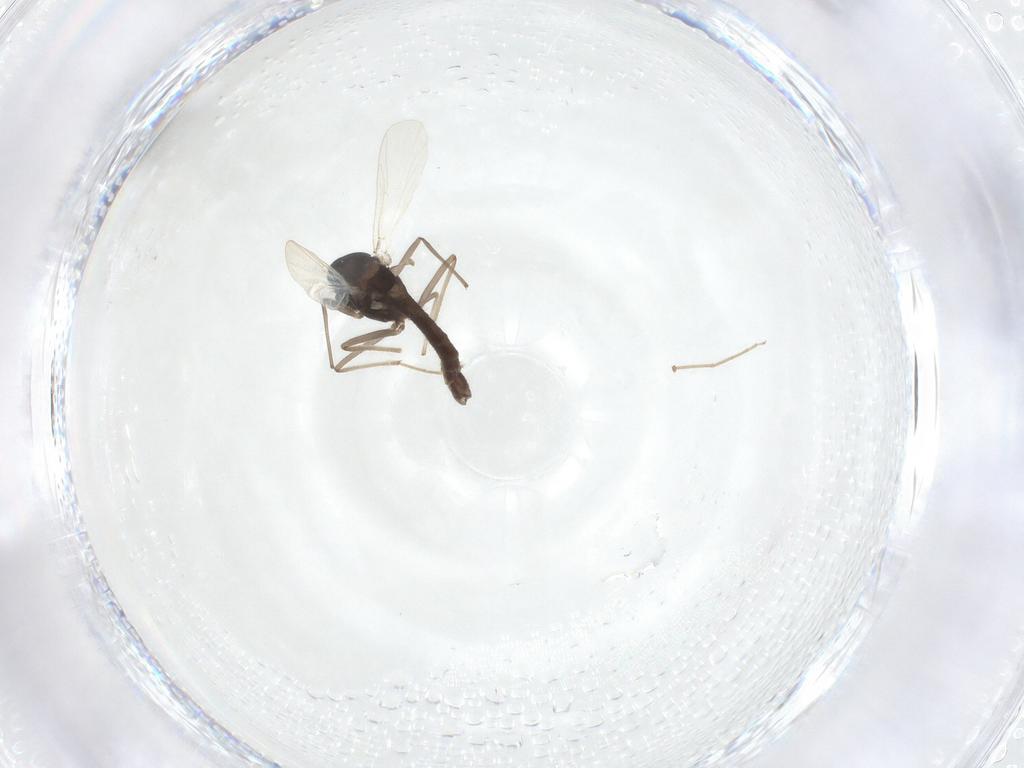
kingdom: Animalia
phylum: Arthropoda
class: Insecta
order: Diptera
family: Chironomidae
